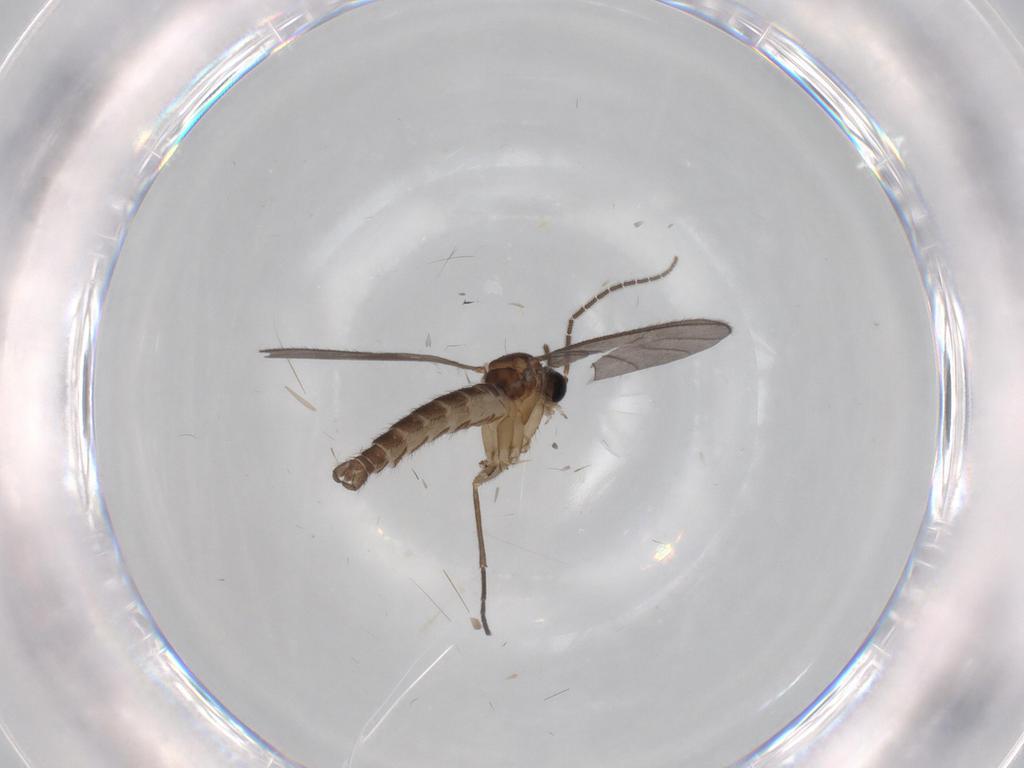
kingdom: Animalia
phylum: Arthropoda
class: Insecta
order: Diptera
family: Sciaridae
